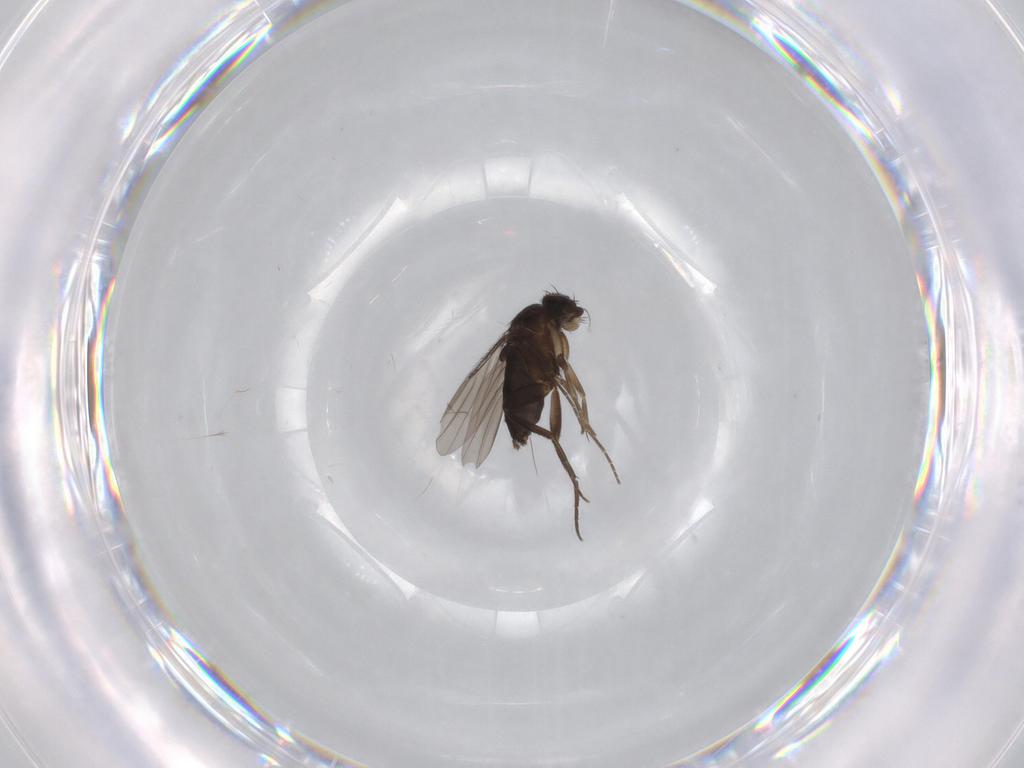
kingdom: Animalia
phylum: Arthropoda
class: Insecta
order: Diptera
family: Phoridae
